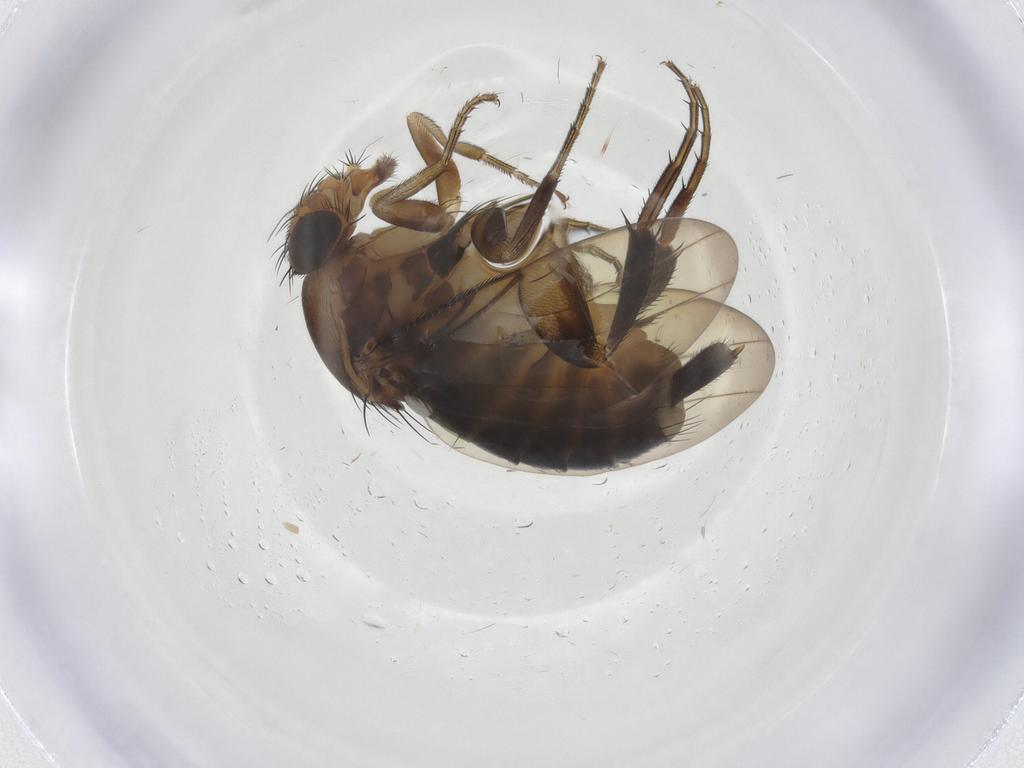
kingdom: Animalia
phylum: Arthropoda
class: Insecta
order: Diptera
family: Phoridae
